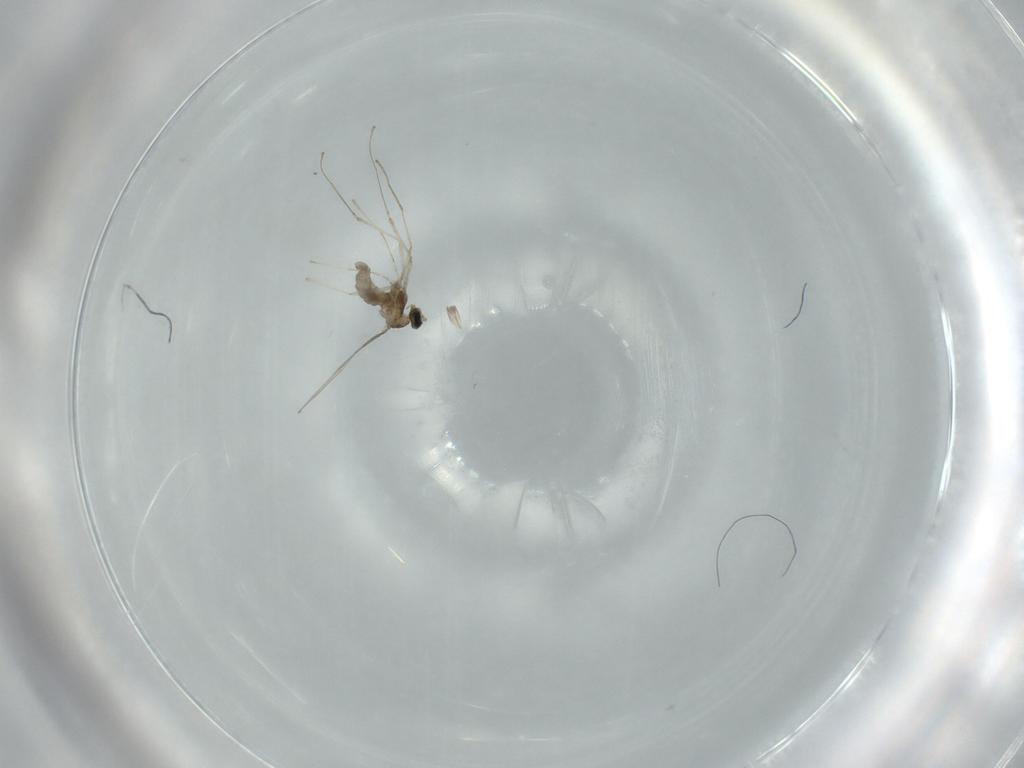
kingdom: Animalia
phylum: Arthropoda
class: Insecta
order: Diptera
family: Cecidomyiidae
